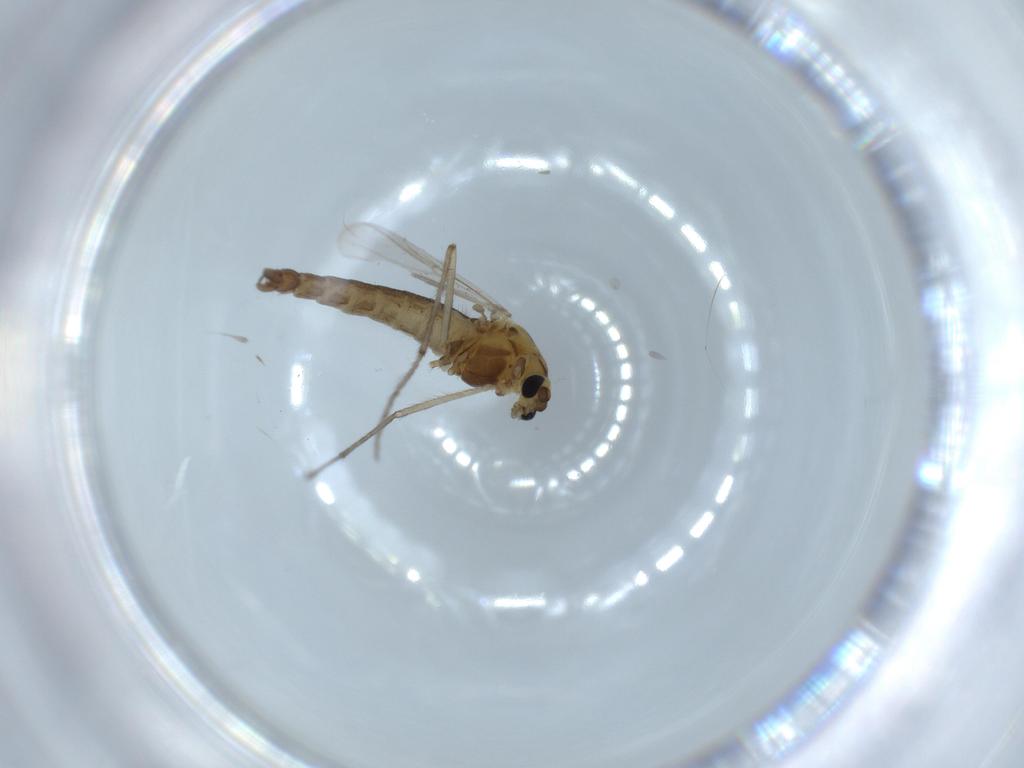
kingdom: Animalia
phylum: Arthropoda
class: Insecta
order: Diptera
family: Chironomidae
